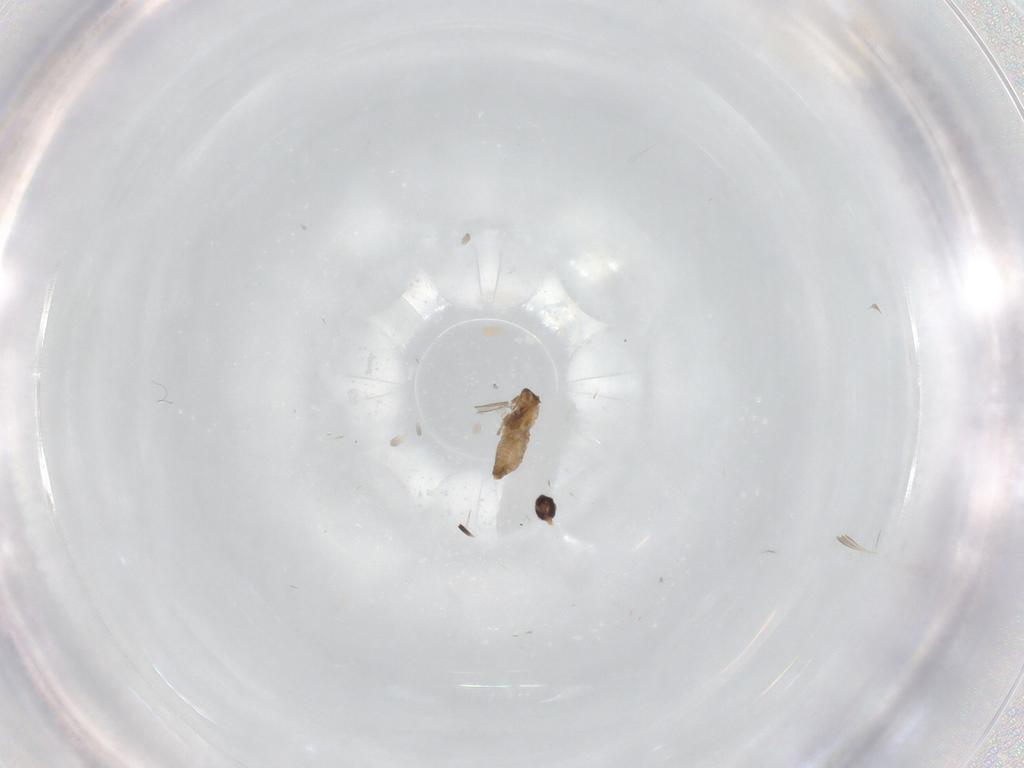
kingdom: Animalia
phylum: Arthropoda
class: Insecta
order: Diptera
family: Cecidomyiidae
